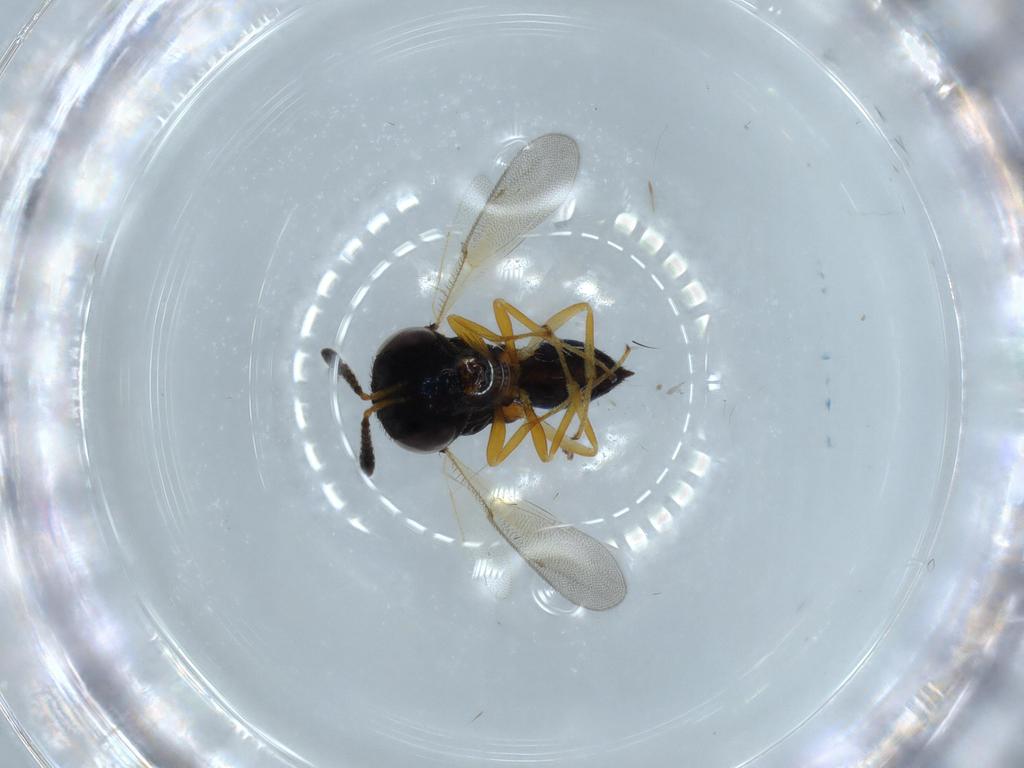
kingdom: Animalia
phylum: Arthropoda
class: Insecta
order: Hymenoptera
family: Pteromalidae
